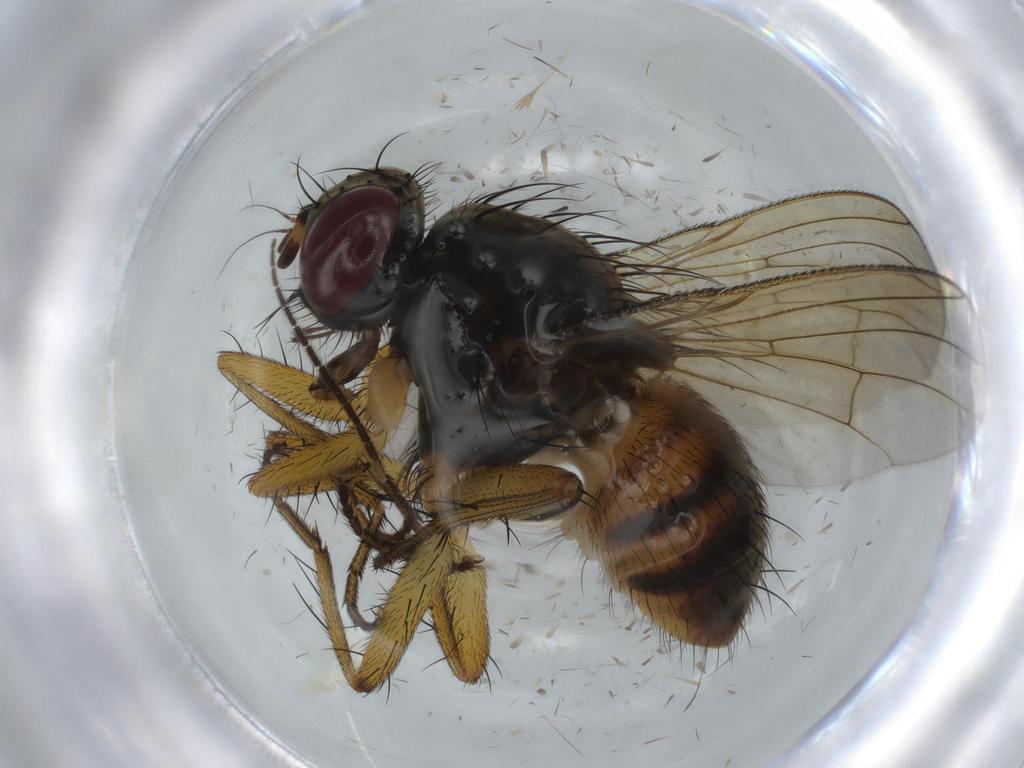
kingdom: Animalia
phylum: Arthropoda
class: Insecta
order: Diptera
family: Muscidae
